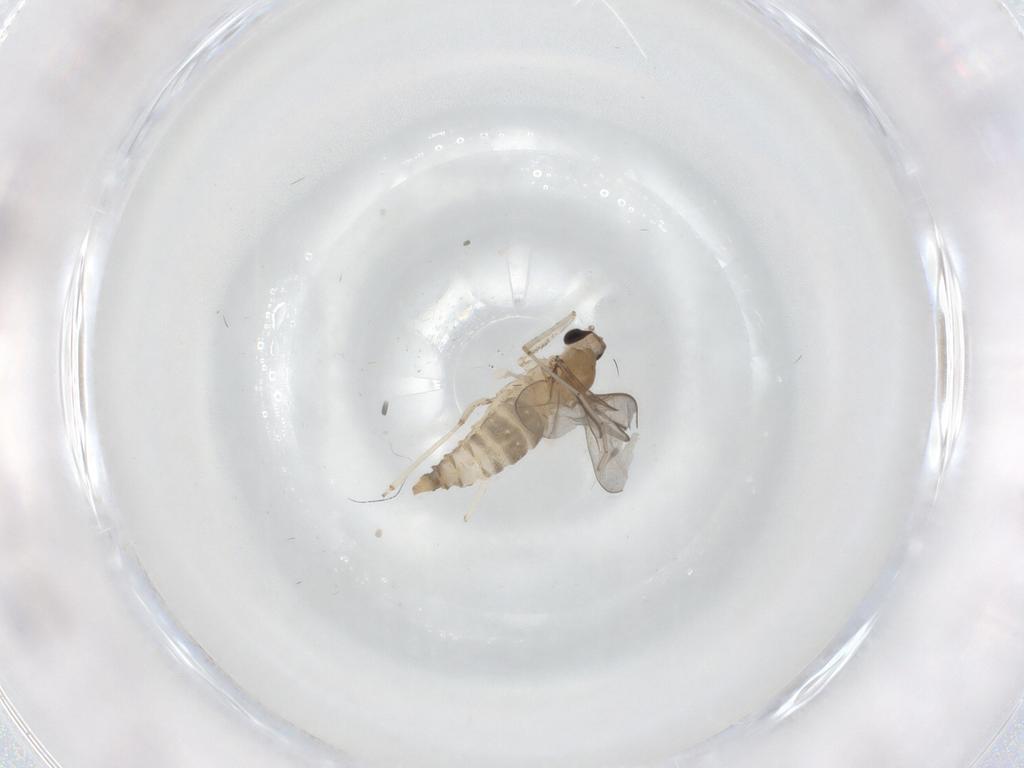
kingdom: Animalia
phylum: Arthropoda
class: Insecta
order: Diptera
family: Cecidomyiidae
